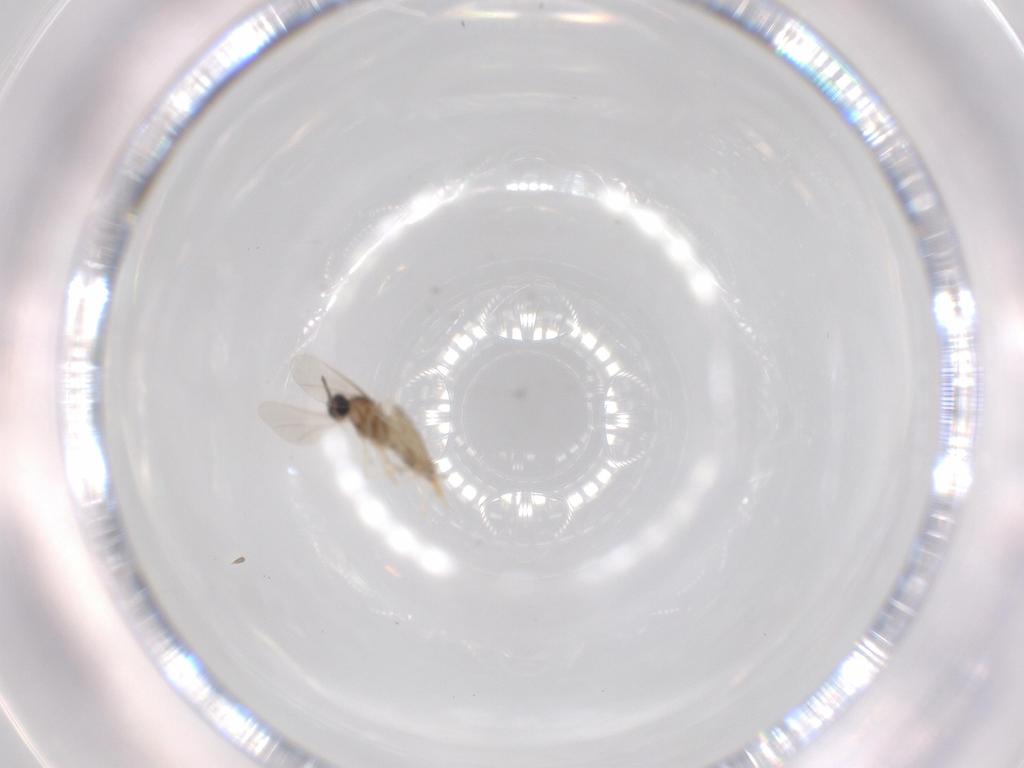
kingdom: Animalia
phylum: Arthropoda
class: Insecta
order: Diptera
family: Cecidomyiidae
